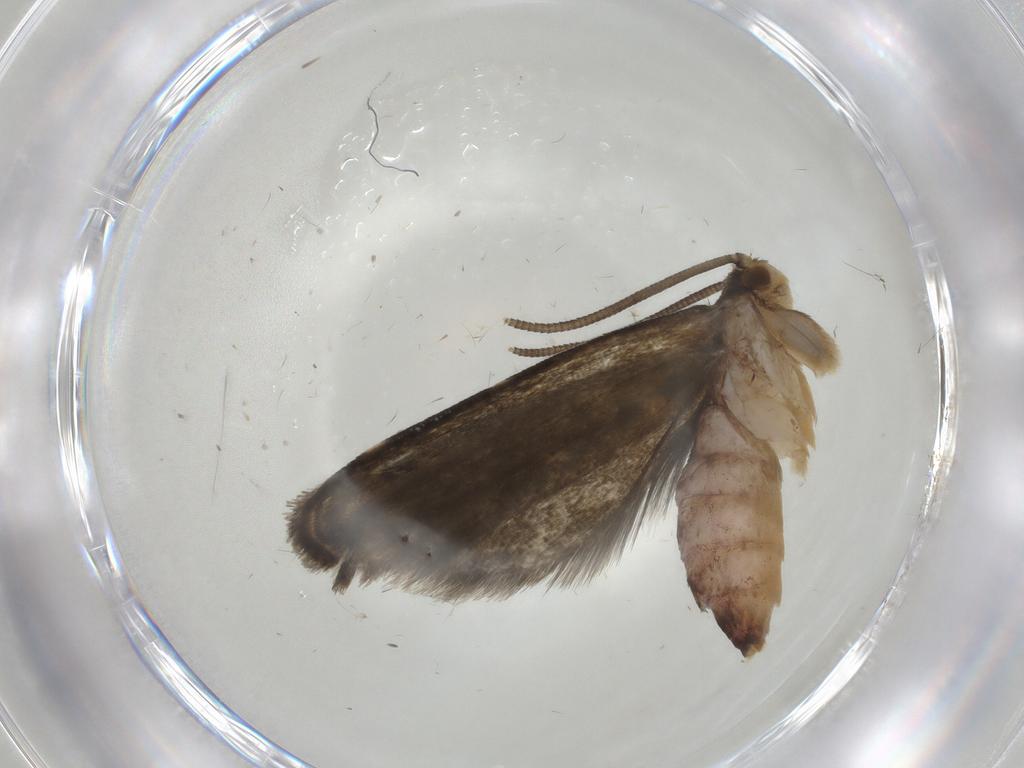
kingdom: Animalia
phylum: Arthropoda
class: Insecta
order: Lepidoptera
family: Dryadaulidae
